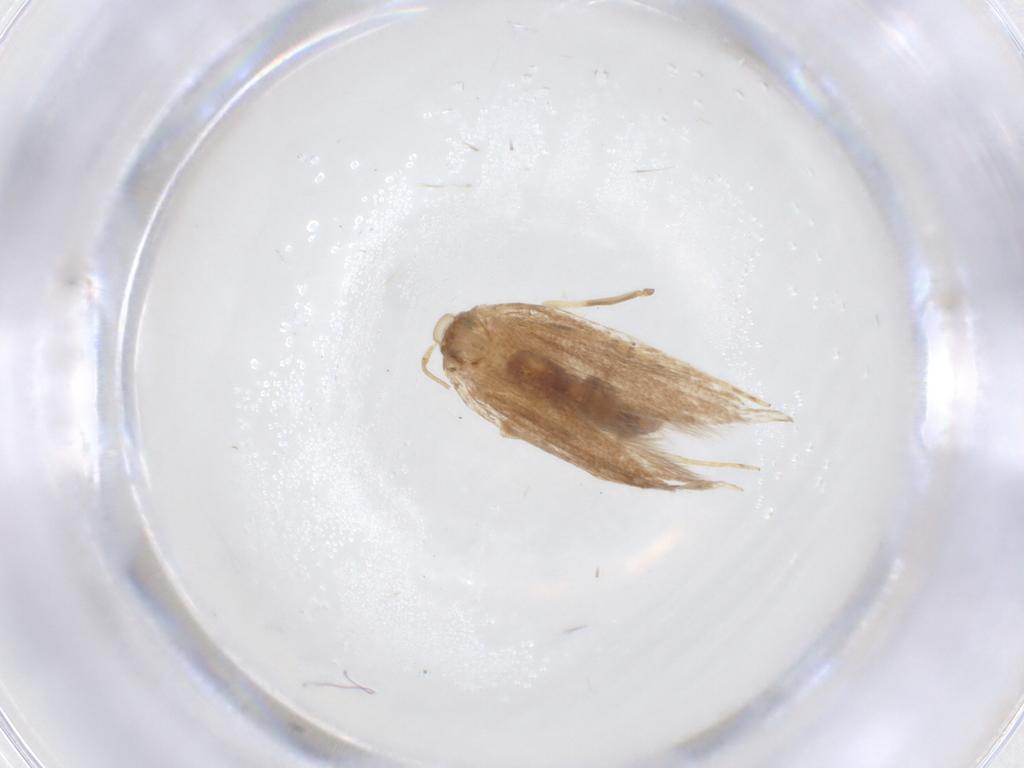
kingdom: Animalia
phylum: Arthropoda
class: Insecta
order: Lepidoptera
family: Cosmopterigidae
